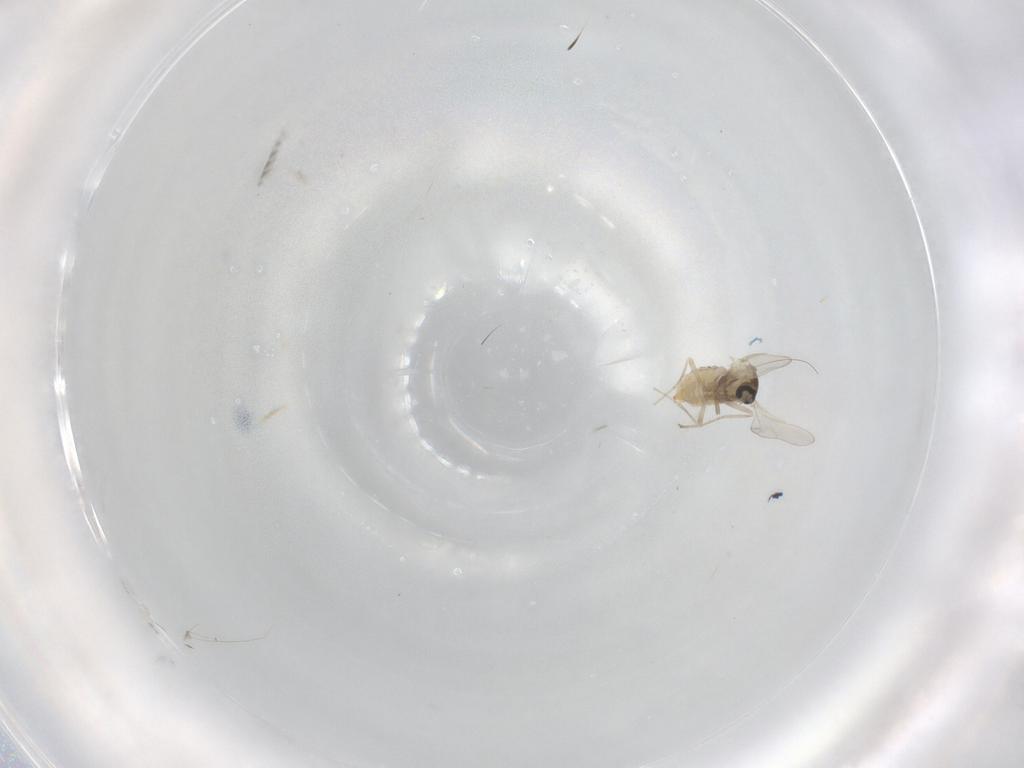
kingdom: Animalia
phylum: Arthropoda
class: Insecta
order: Diptera
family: Cecidomyiidae
